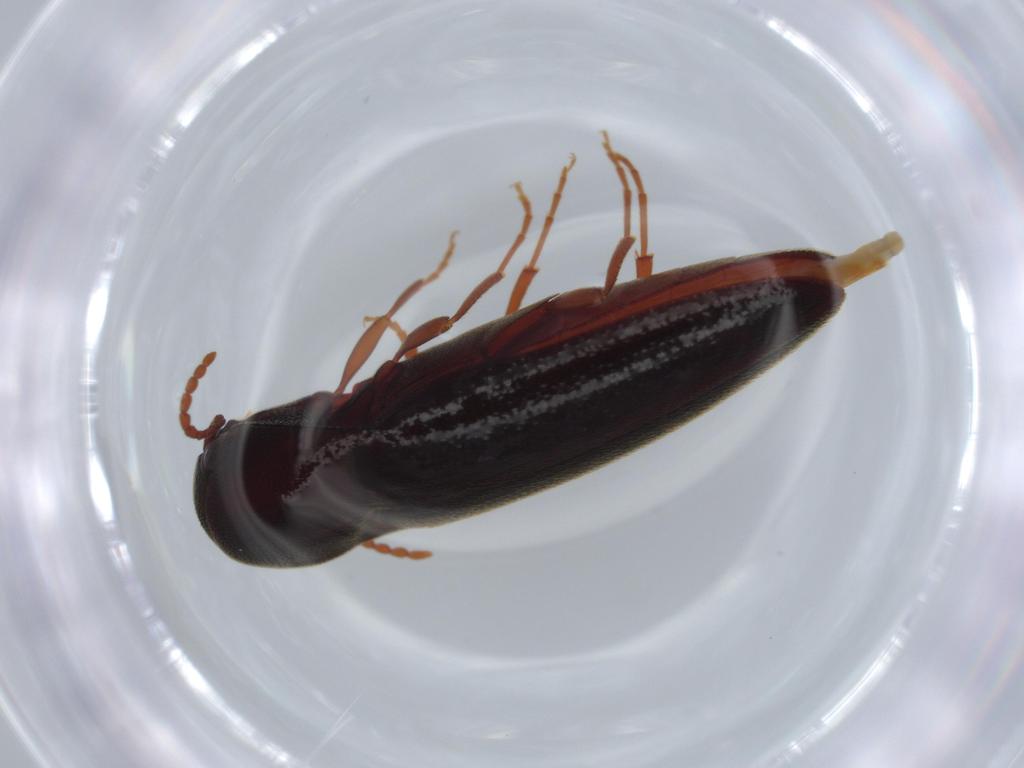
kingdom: Animalia
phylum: Arthropoda
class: Insecta
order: Coleoptera
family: Eucnemidae
